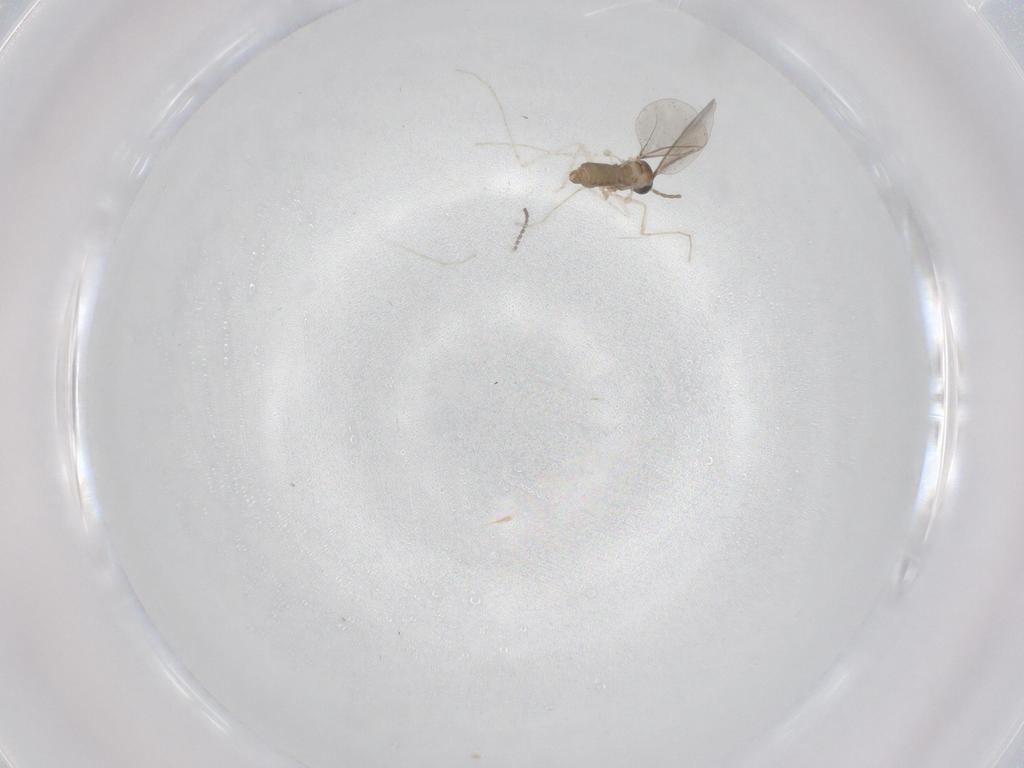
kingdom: Animalia
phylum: Arthropoda
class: Insecta
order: Diptera
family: Cecidomyiidae
